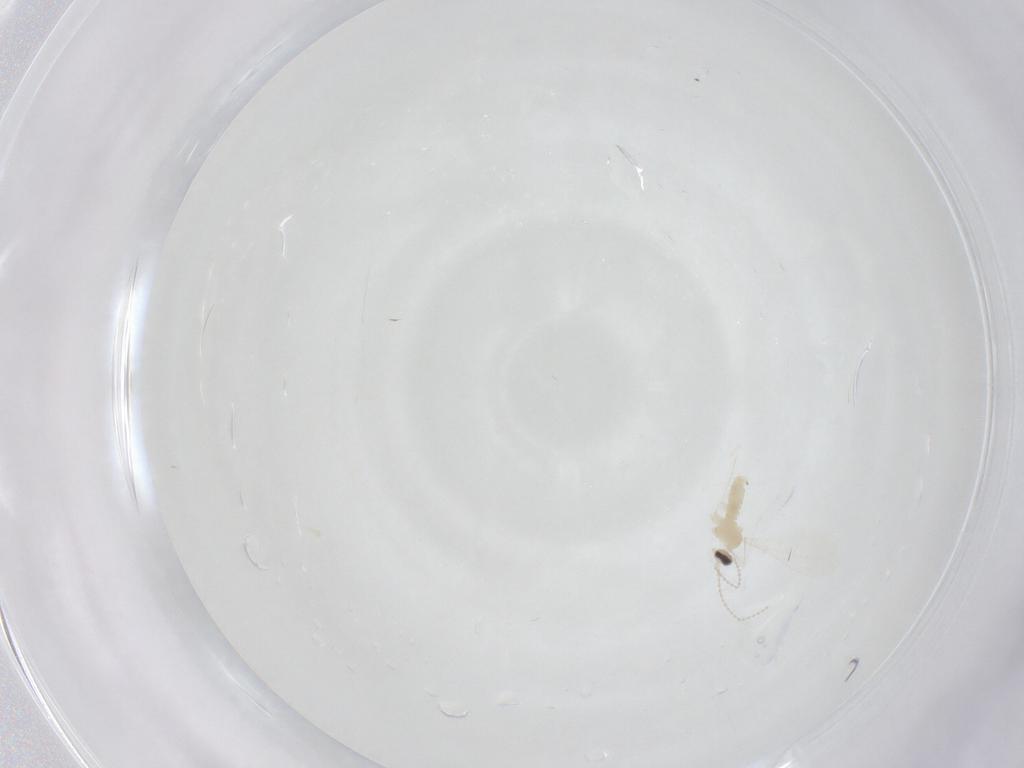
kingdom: Animalia
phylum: Arthropoda
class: Insecta
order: Diptera
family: Cecidomyiidae
